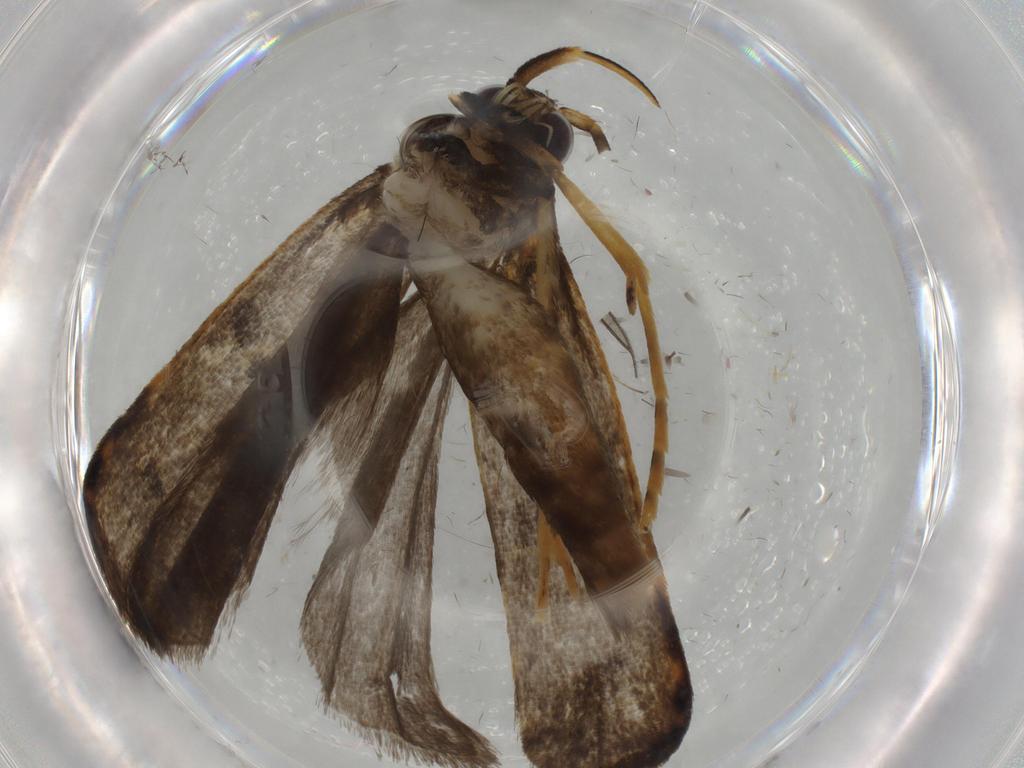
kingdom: Animalia
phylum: Arthropoda
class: Insecta
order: Lepidoptera
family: Cosmopterigidae
